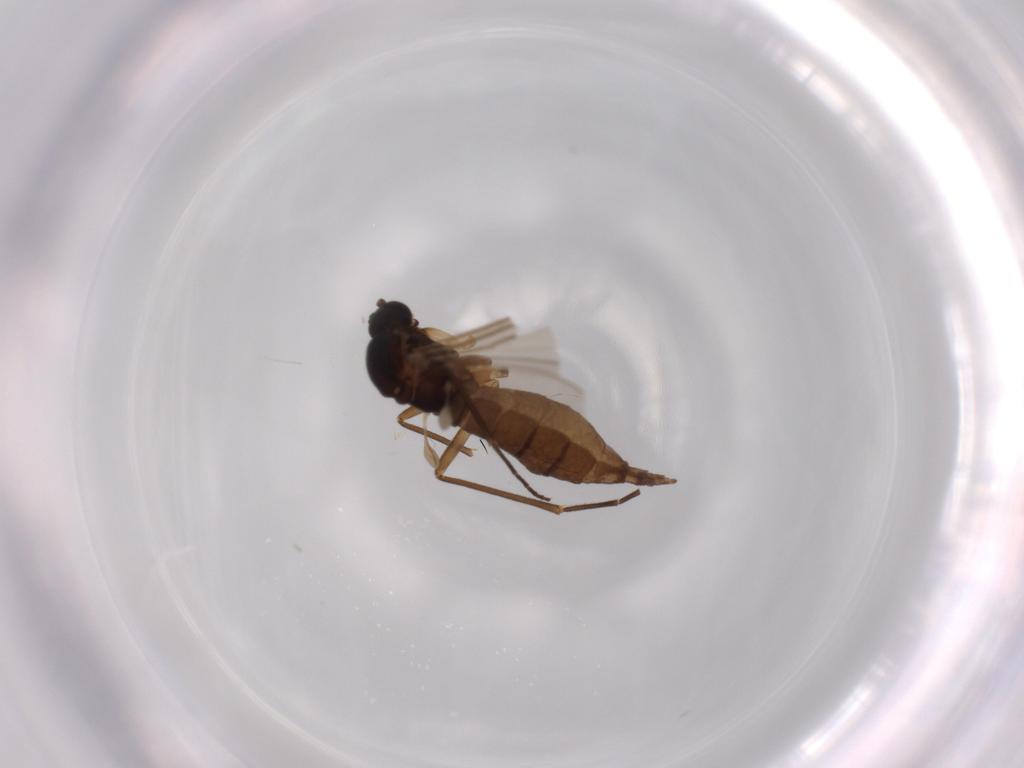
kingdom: Animalia
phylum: Arthropoda
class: Insecta
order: Diptera
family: Sciaridae
